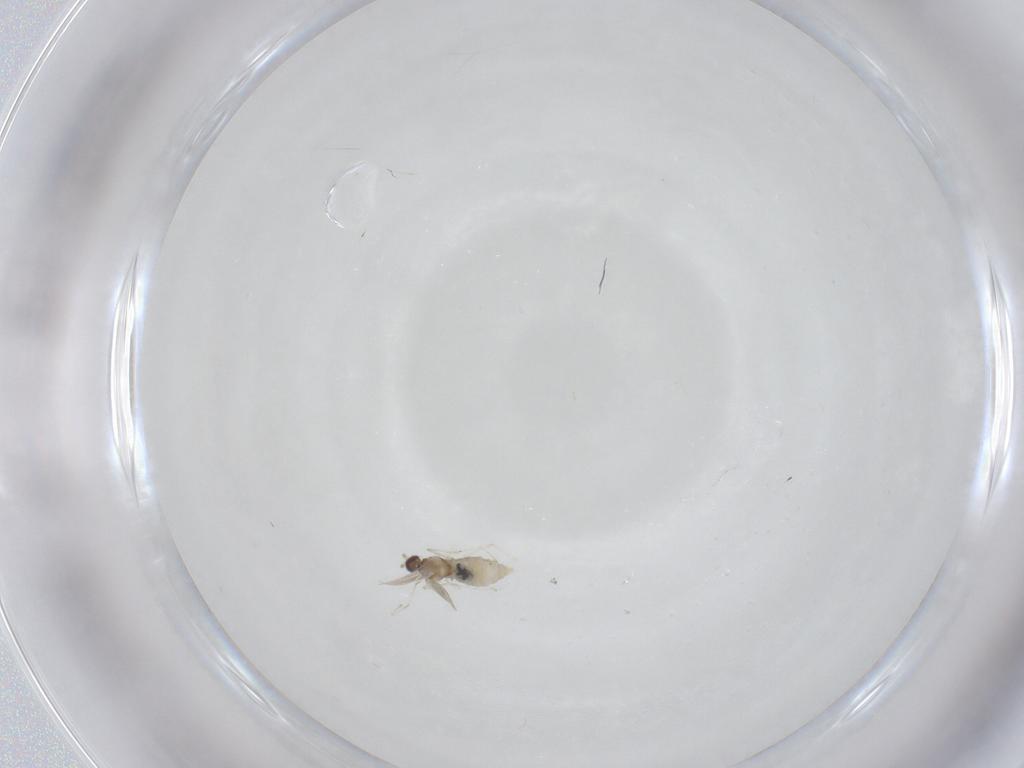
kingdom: Animalia
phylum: Arthropoda
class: Insecta
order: Diptera
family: Cecidomyiidae
